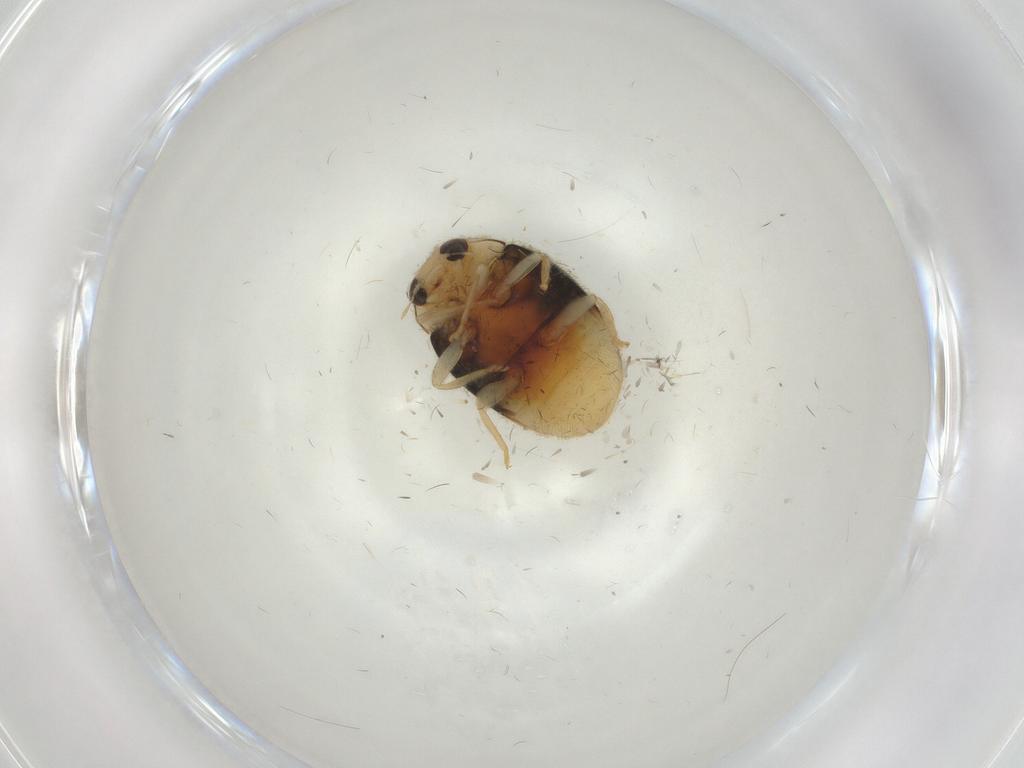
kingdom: Animalia
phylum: Arthropoda
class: Insecta
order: Coleoptera
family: Coccinellidae
